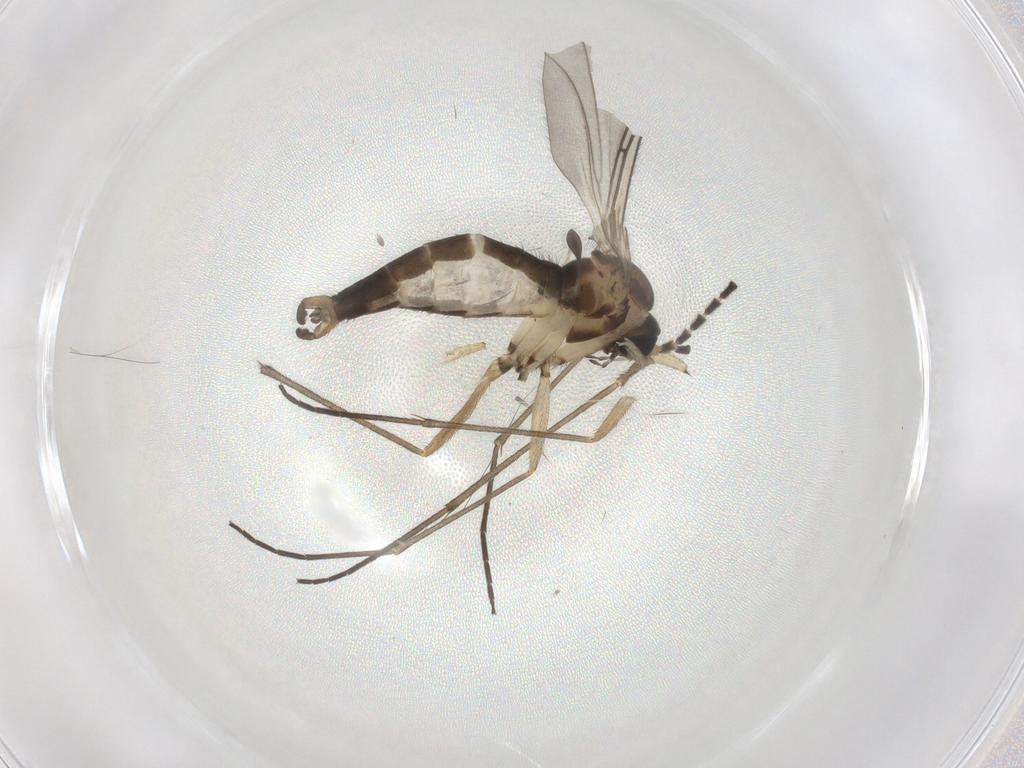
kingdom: Animalia
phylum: Arthropoda
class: Insecta
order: Diptera
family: Sciaridae
